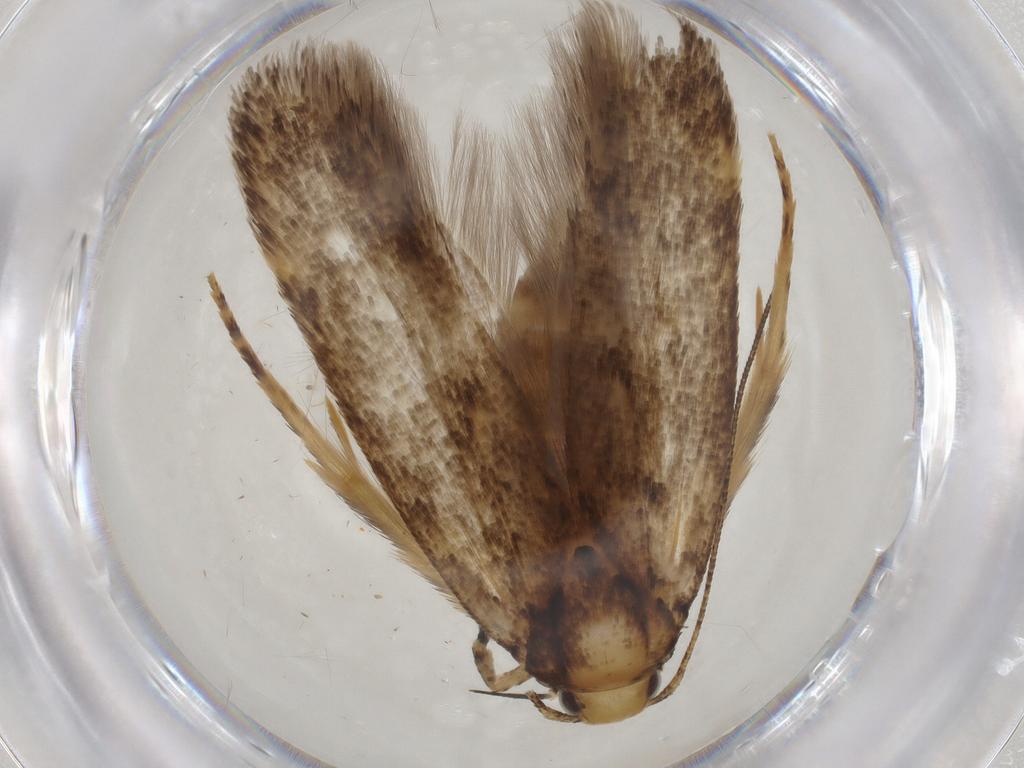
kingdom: Animalia
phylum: Arthropoda
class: Insecta
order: Lepidoptera
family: Gelechiidae
